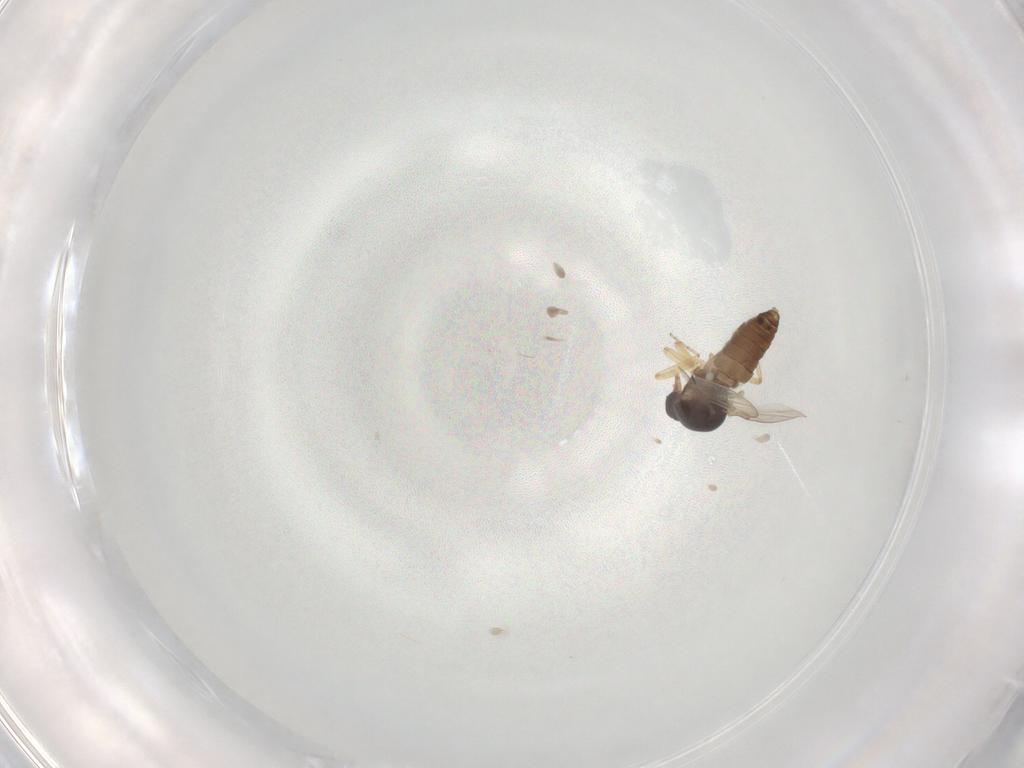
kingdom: Animalia
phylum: Arthropoda
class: Insecta
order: Diptera
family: Ceratopogonidae
